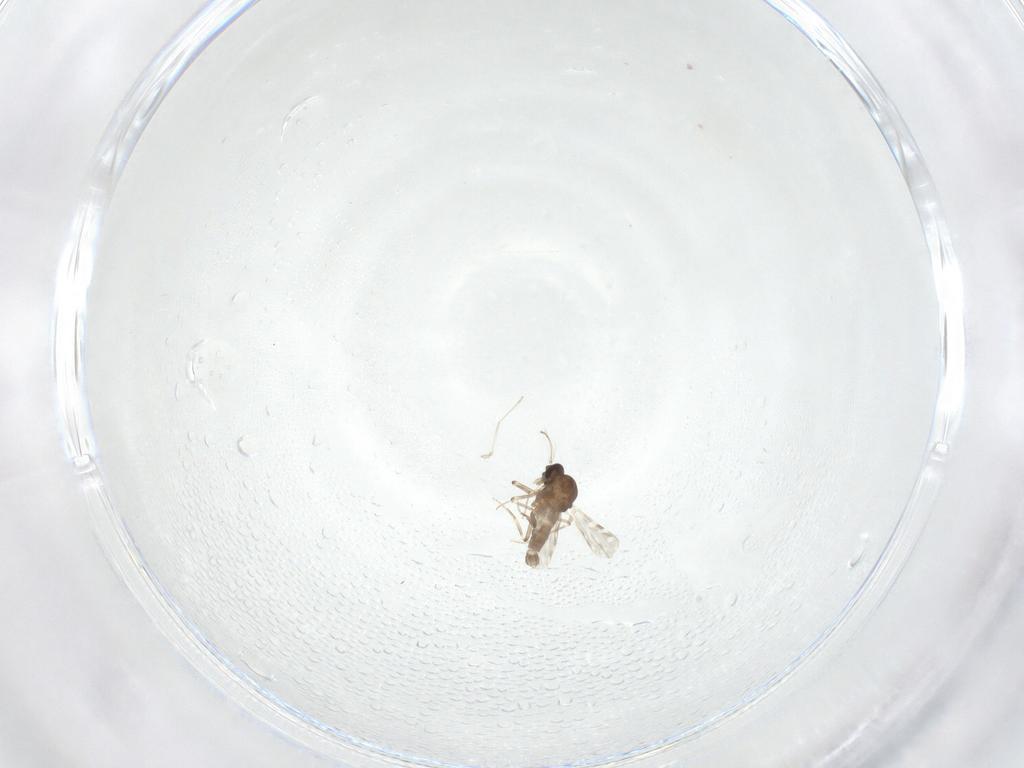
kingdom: Animalia
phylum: Arthropoda
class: Insecta
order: Diptera
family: Ceratopogonidae
